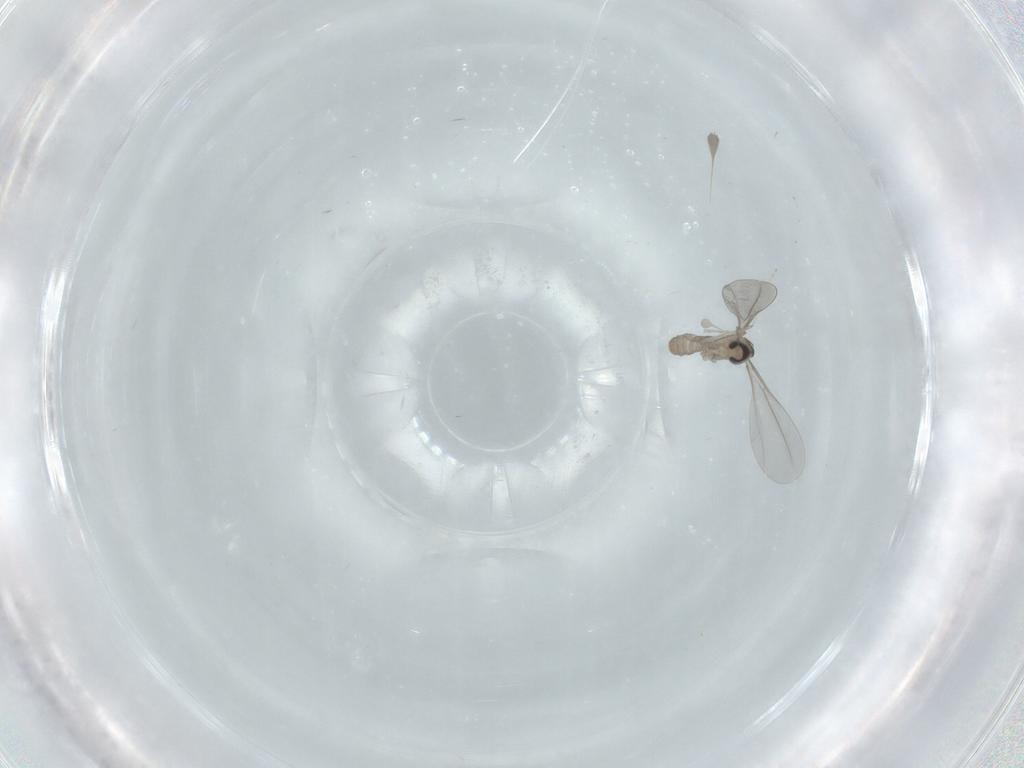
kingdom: Animalia
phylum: Arthropoda
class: Insecta
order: Diptera
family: Cecidomyiidae
